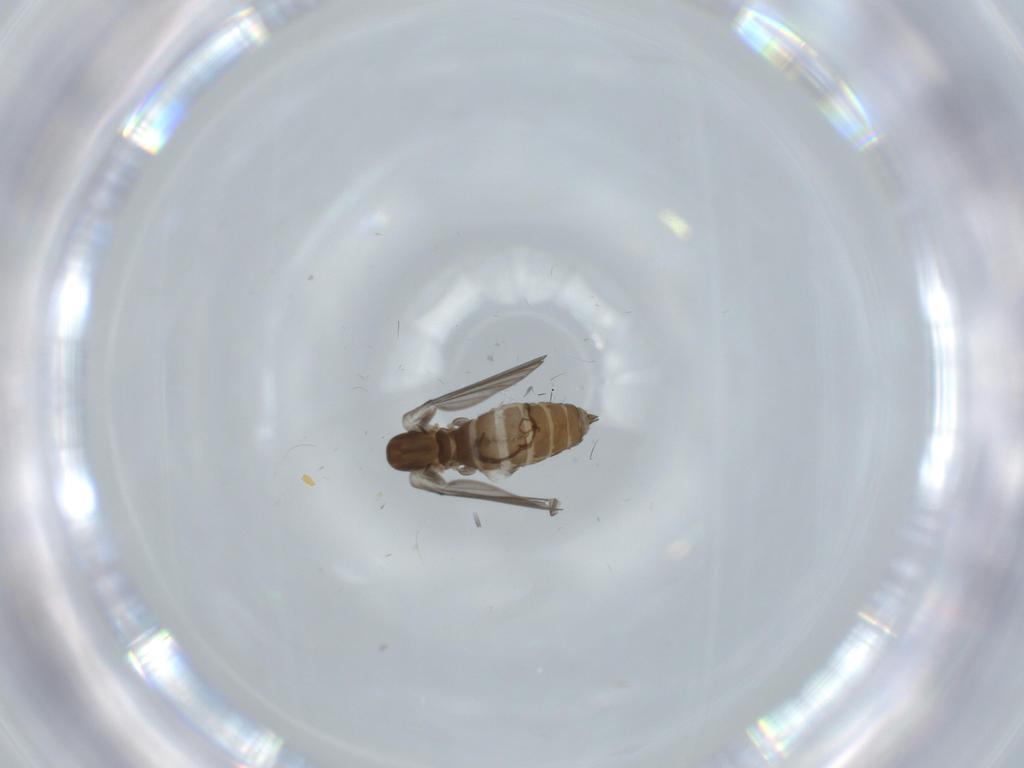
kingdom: Animalia
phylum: Arthropoda
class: Insecta
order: Diptera
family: Psychodidae
